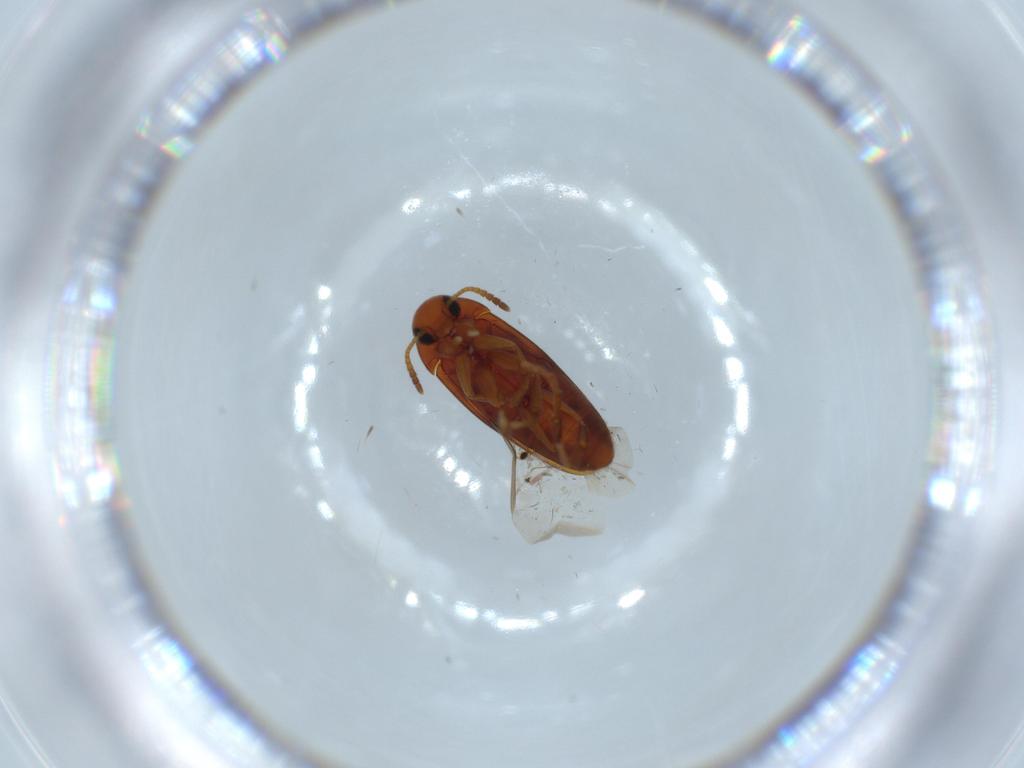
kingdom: Animalia
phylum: Arthropoda
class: Insecta
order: Coleoptera
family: Scraptiidae
